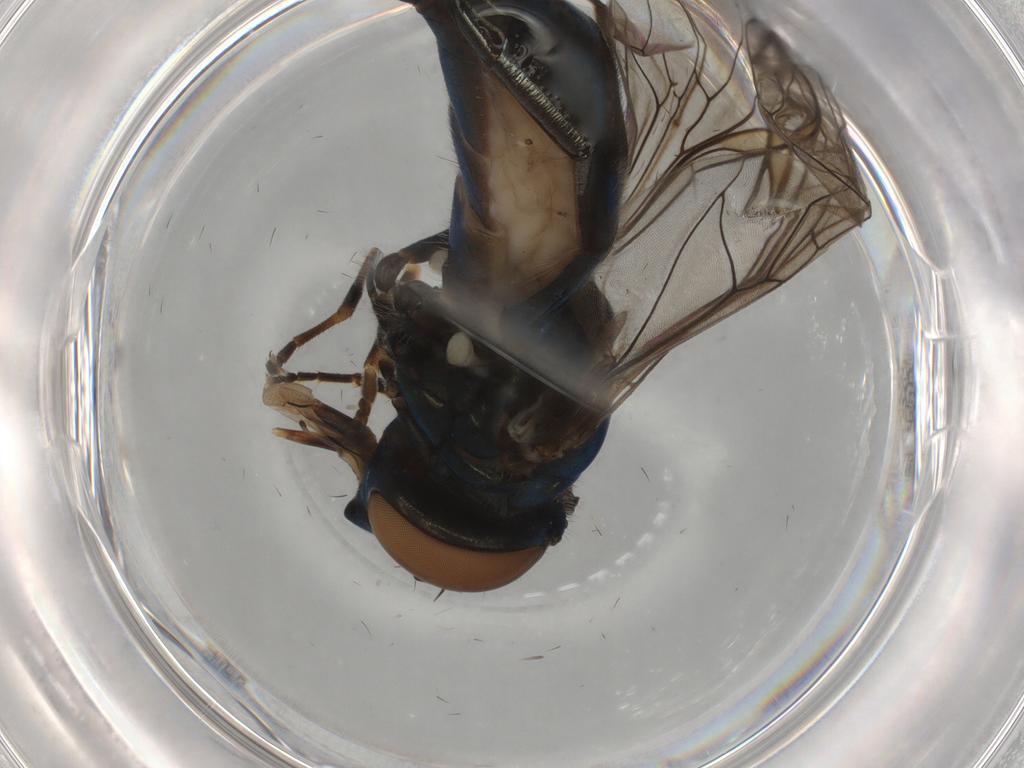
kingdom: Animalia
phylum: Arthropoda
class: Insecta
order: Diptera
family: Syrphidae
